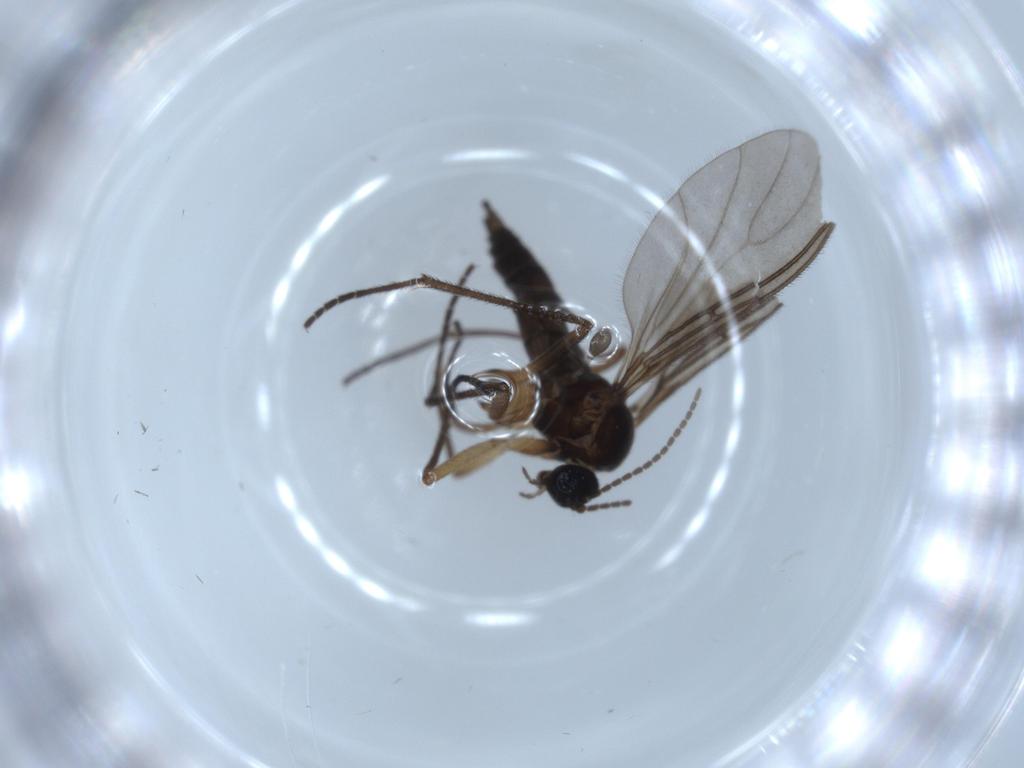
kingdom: Animalia
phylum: Arthropoda
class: Insecta
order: Diptera
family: Sciaridae
